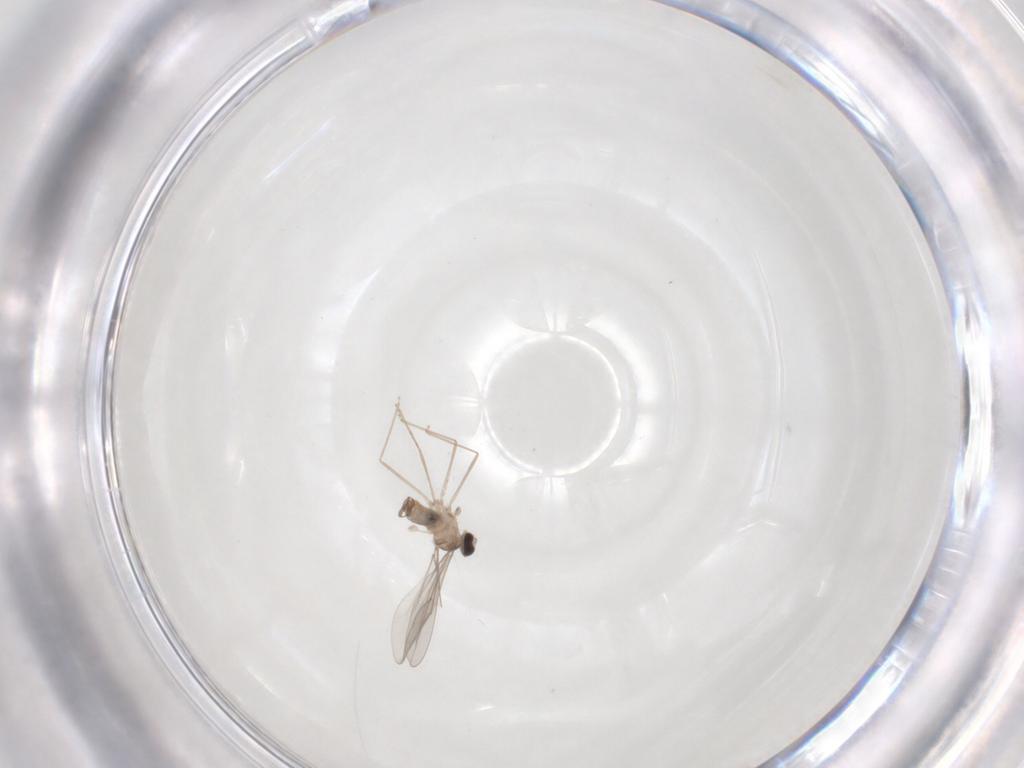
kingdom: Animalia
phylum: Arthropoda
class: Insecta
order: Diptera
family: Cecidomyiidae
